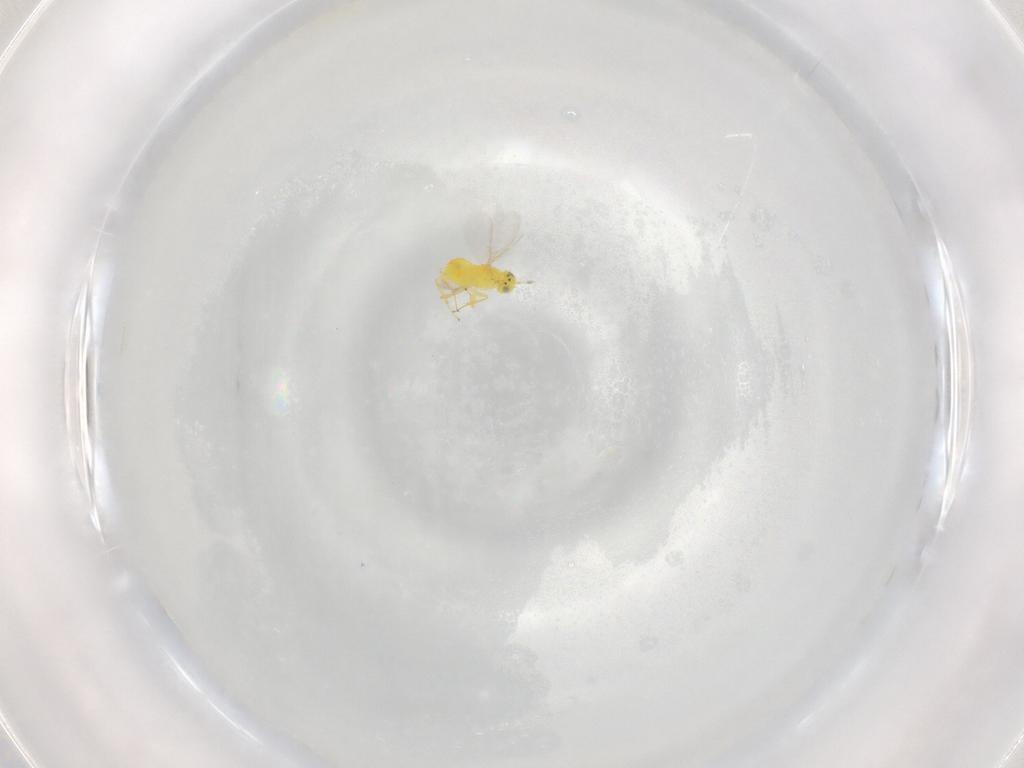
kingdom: Animalia
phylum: Arthropoda
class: Insecta
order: Hymenoptera
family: Aphelinidae
